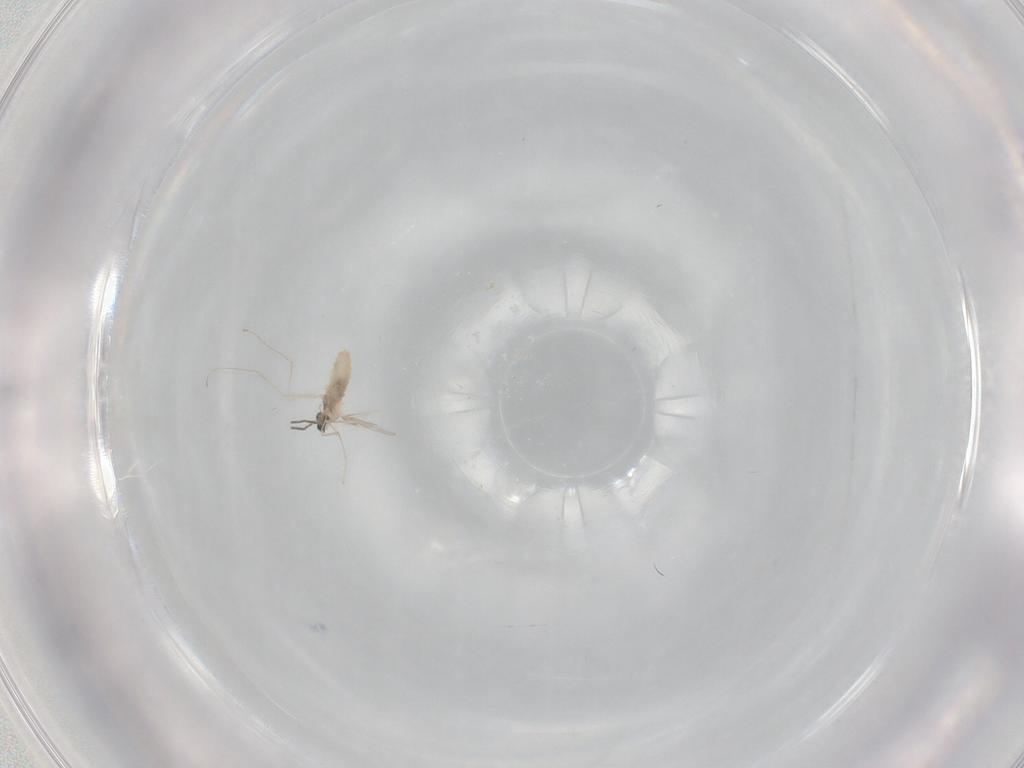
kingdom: Animalia
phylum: Arthropoda
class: Insecta
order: Diptera
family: Cecidomyiidae
